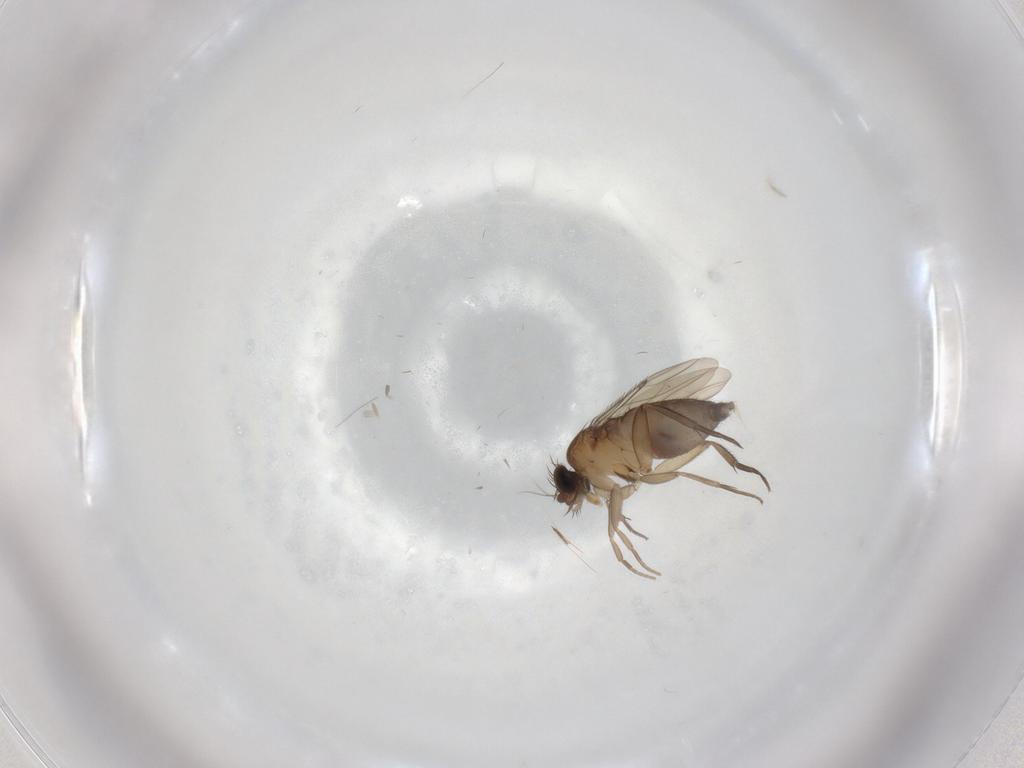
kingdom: Animalia
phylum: Arthropoda
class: Insecta
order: Diptera
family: Phoridae
